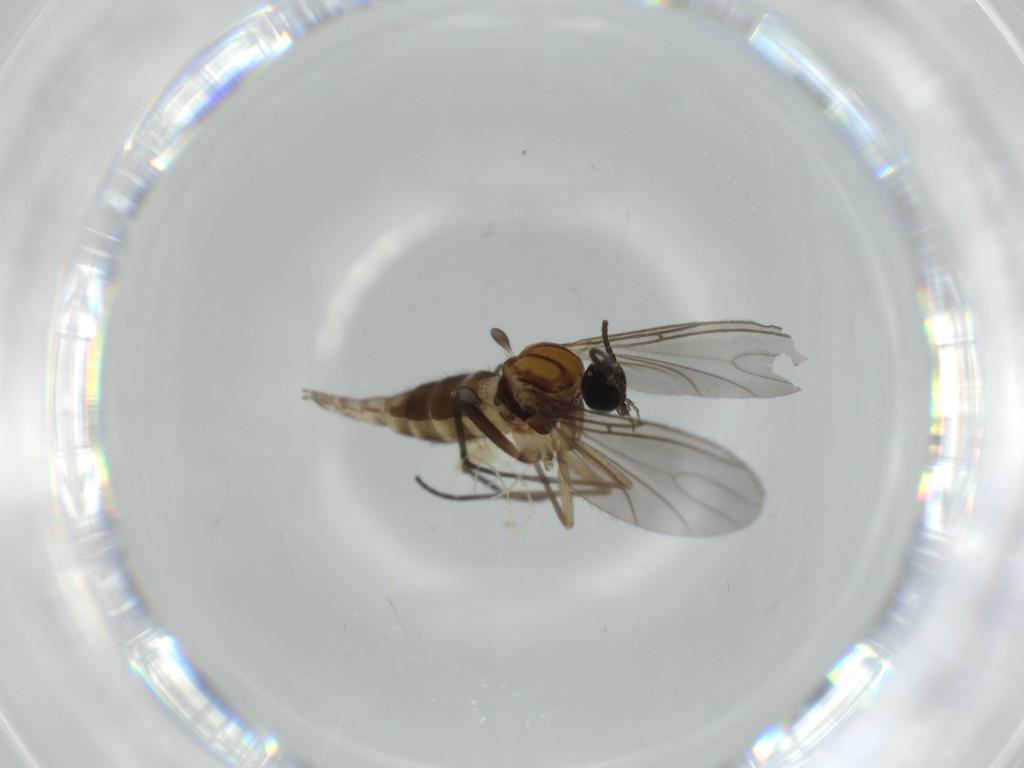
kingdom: Animalia
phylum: Arthropoda
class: Insecta
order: Diptera
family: Sciaridae
